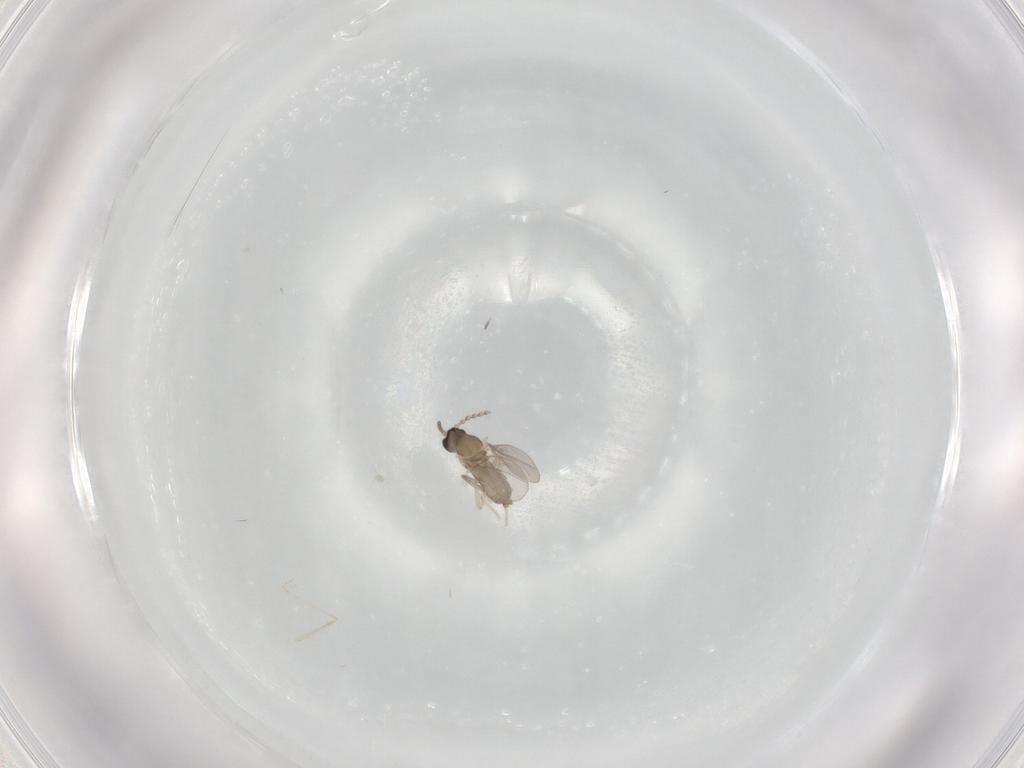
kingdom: Animalia
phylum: Arthropoda
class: Insecta
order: Diptera
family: Cecidomyiidae
